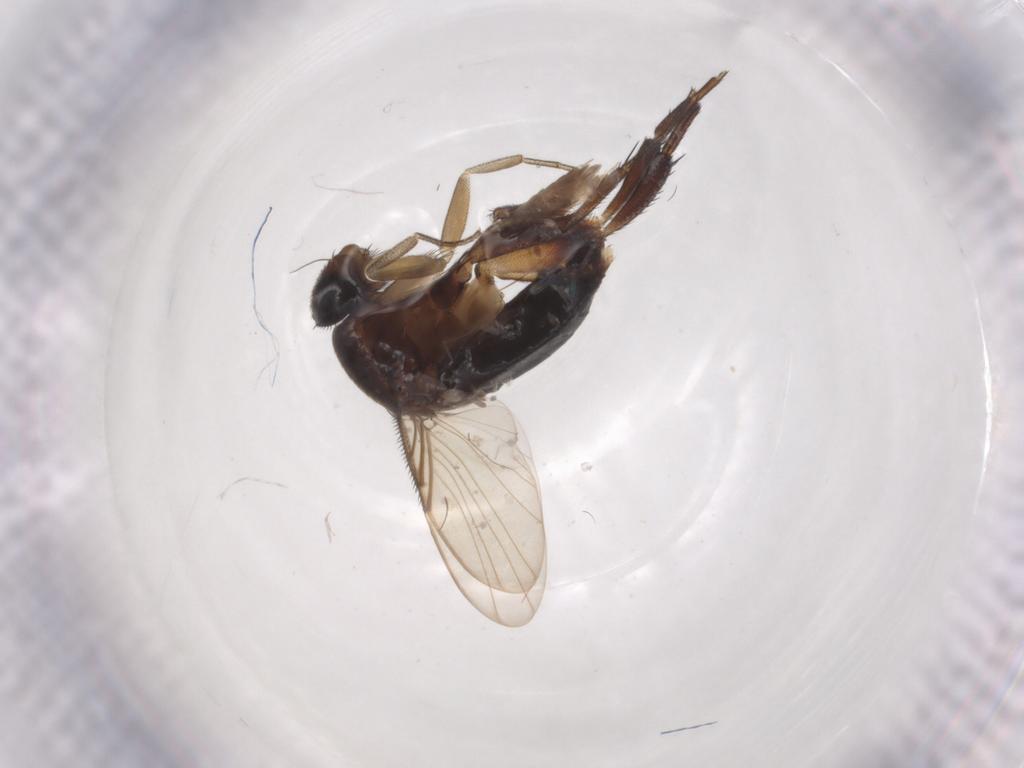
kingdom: Animalia
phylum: Arthropoda
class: Insecta
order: Diptera
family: Phoridae
